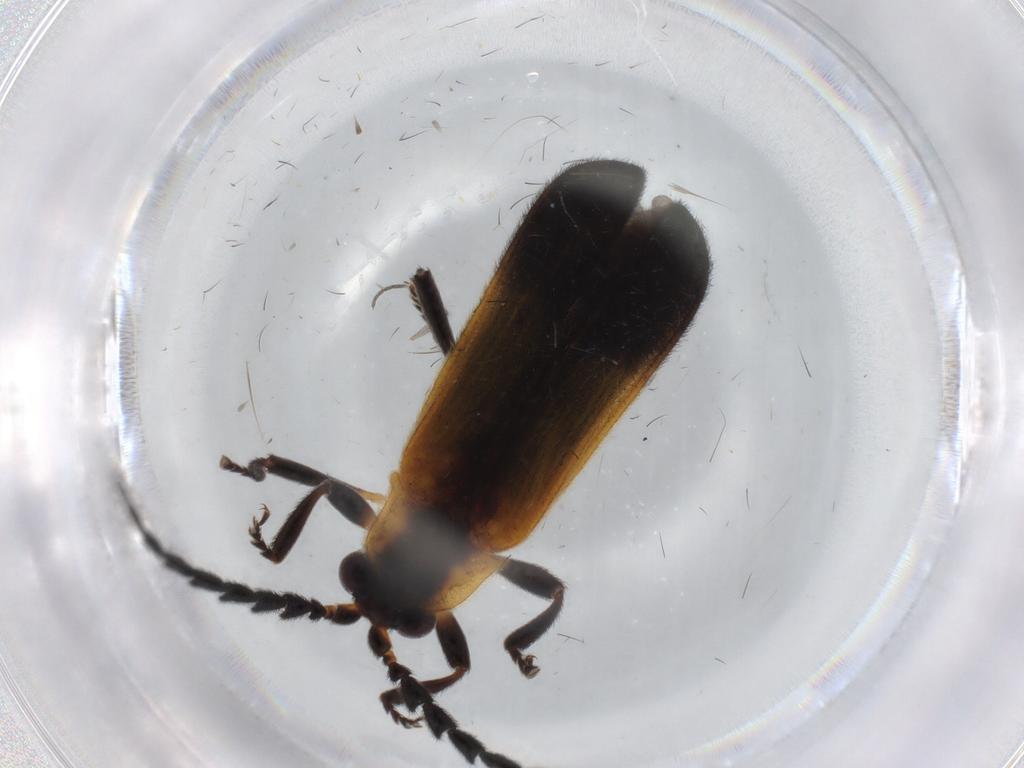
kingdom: Animalia
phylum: Arthropoda
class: Insecta
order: Coleoptera
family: Lycidae
